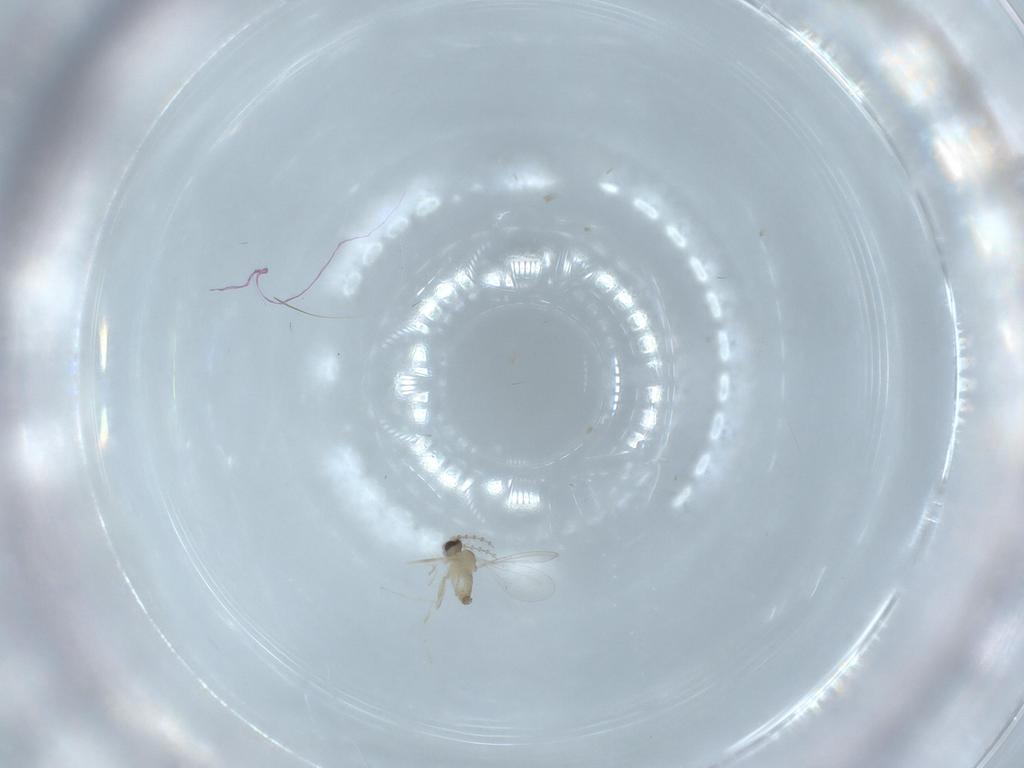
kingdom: Animalia
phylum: Arthropoda
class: Insecta
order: Diptera
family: Cecidomyiidae
